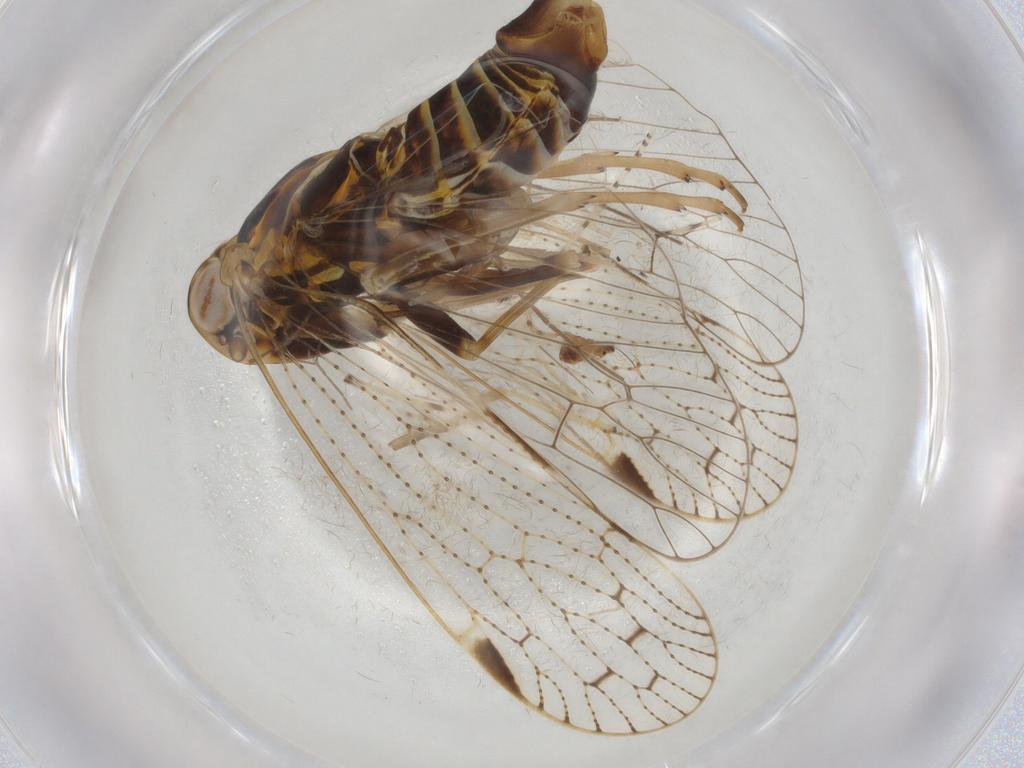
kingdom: Animalia
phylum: Arthropoda
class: Insecta
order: Hemiptera
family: Cixiidae
